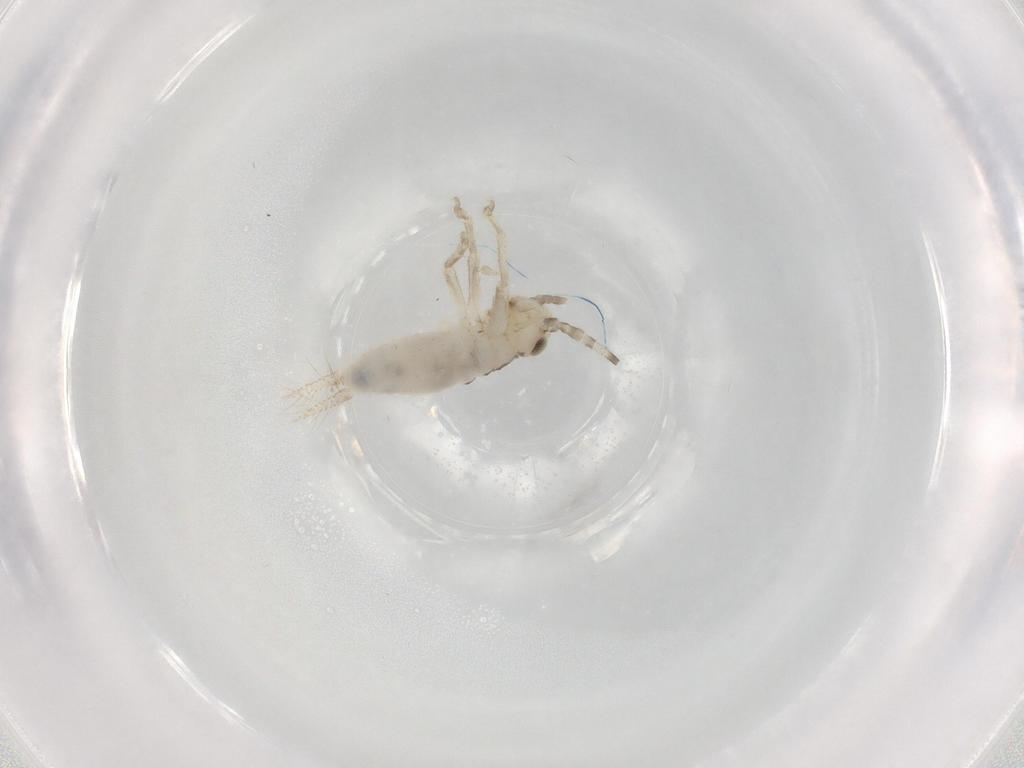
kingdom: Animalia
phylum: Arthropoda
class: Insecta
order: Orthoptera
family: Trigonidiidae
